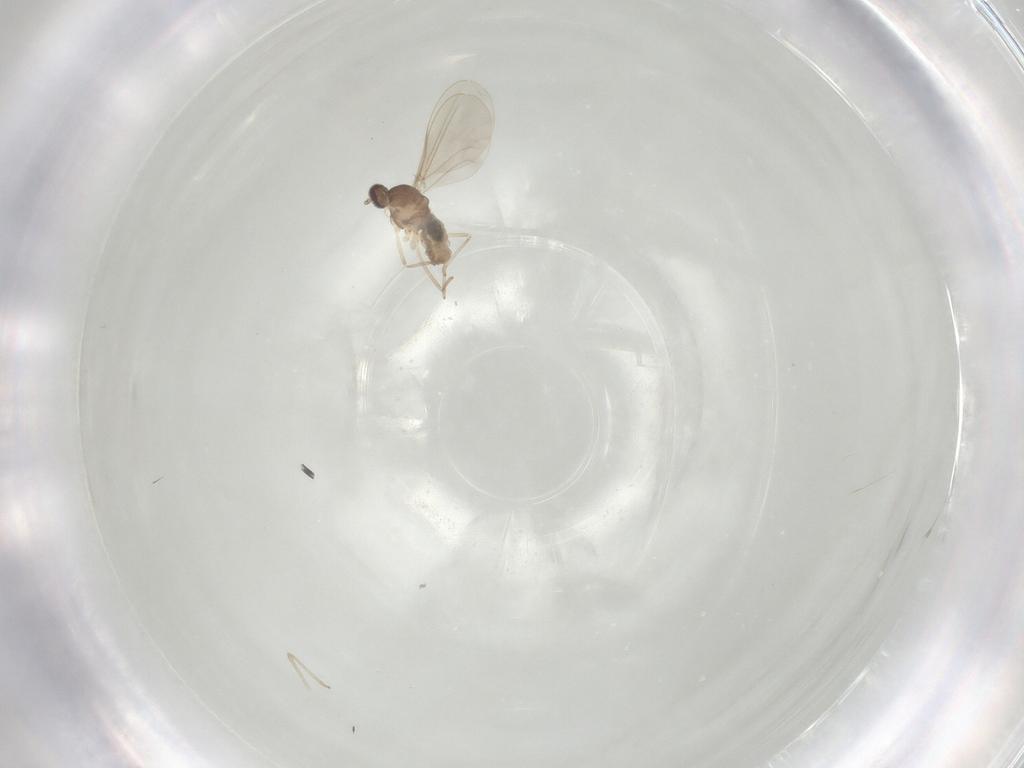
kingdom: Animalia
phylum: Arthropoda
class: Insecta
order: Diptera
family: Cecidomyiidae
